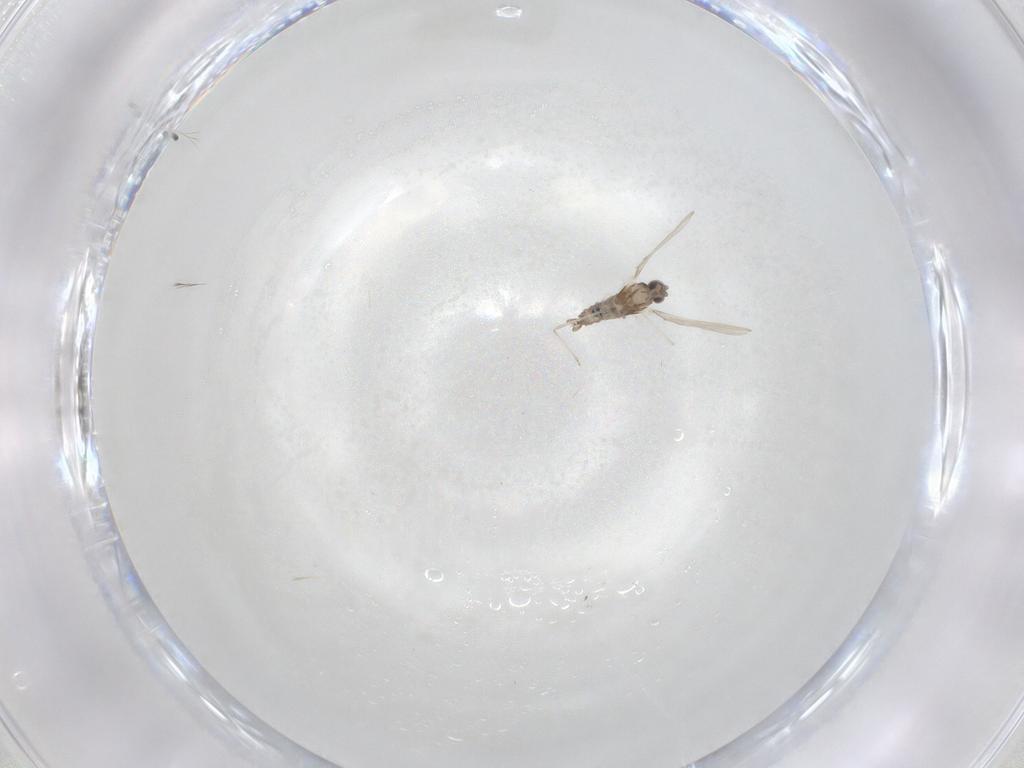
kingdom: Animalia
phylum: Arthropoda
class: Insecta
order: Diptera
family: Cecidomyiidae
